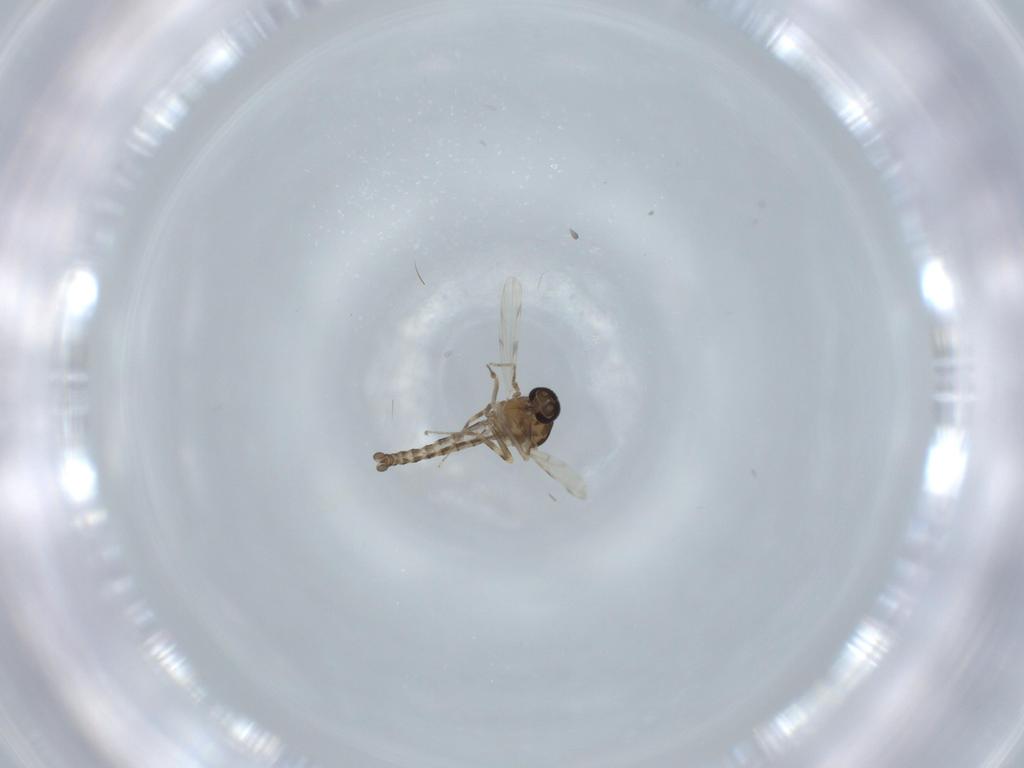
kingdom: Animalia
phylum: Arthropoda
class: Insecta
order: Diptera
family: Ceratopogonidae
